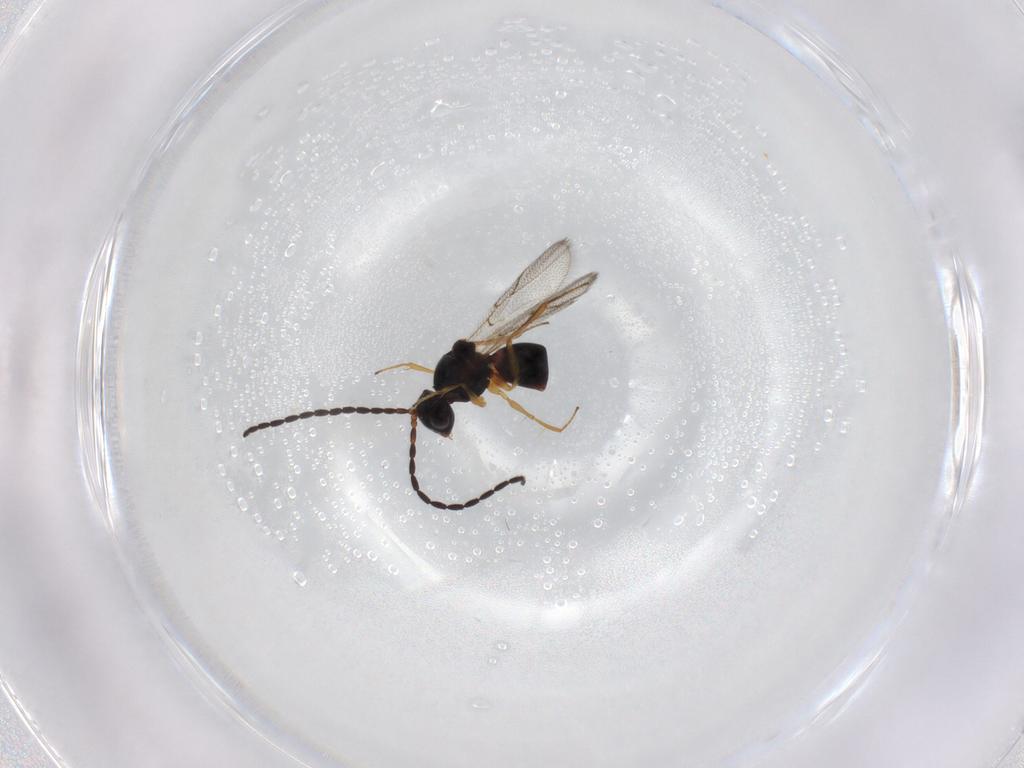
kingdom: Animalia
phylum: Arthropoda
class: Insecta
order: Hymenoptera
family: Figitidae
